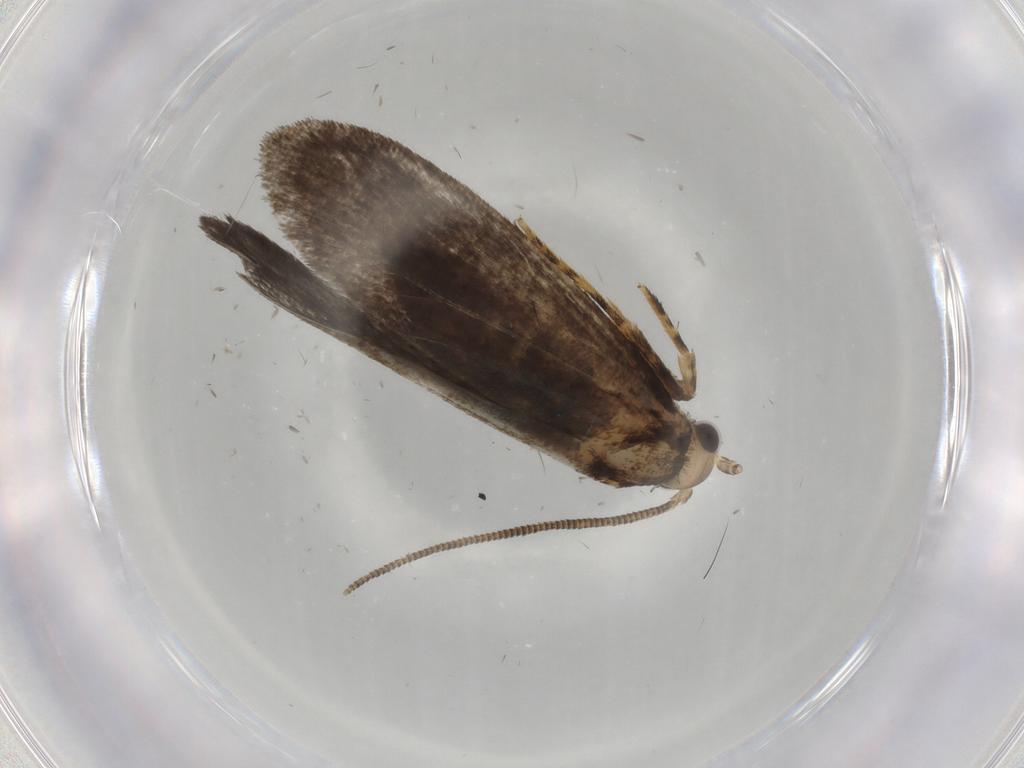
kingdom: Animalia
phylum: Arthropoda
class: Insecta
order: Lepidoptera
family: Tineidae
